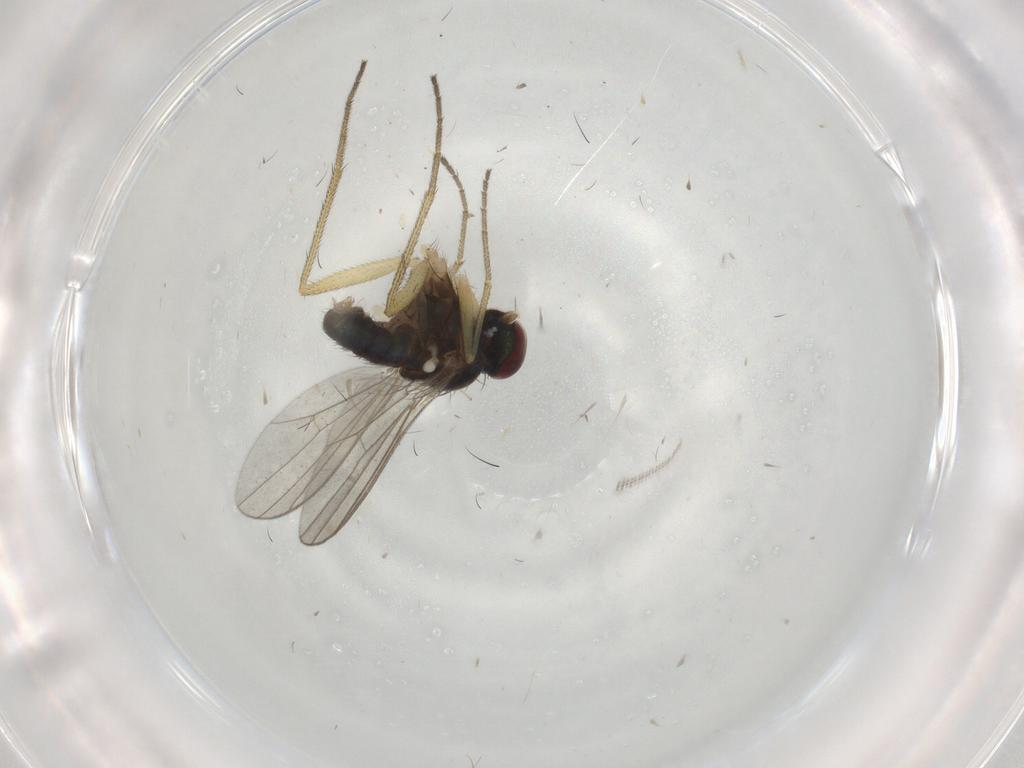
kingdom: Animalia
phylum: Arthropoda
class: Insecta
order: Diptera
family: Dolichopodidae
